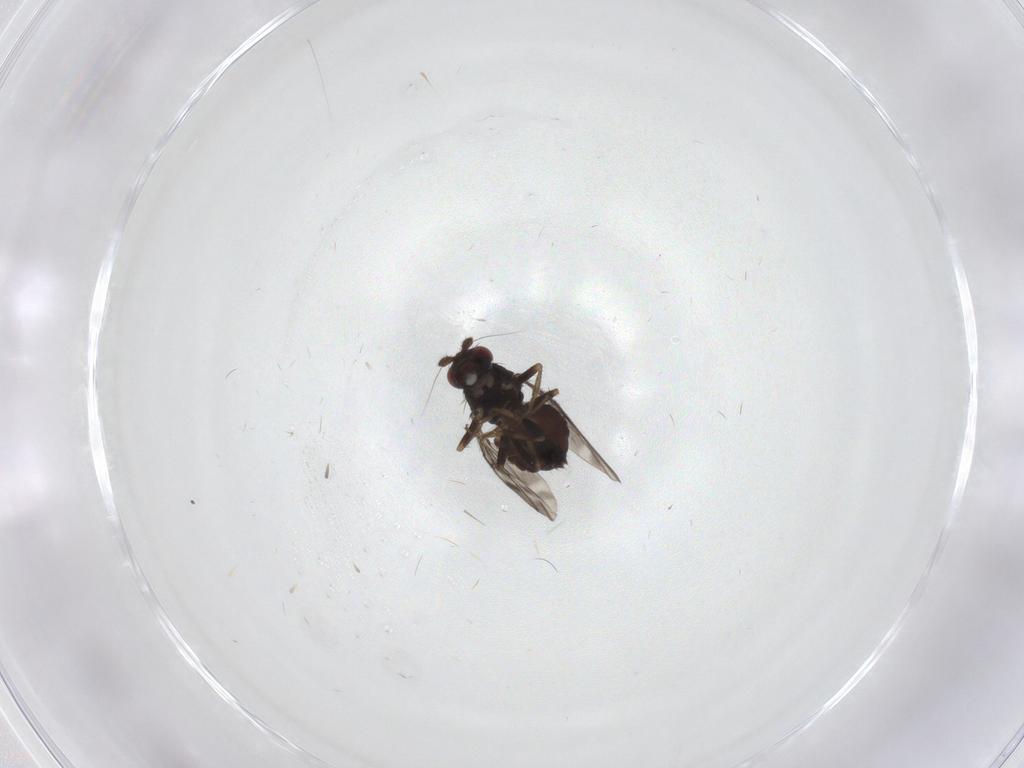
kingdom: Animalia
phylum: Arthropoda
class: Insecta
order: Diptera
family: Sphaeroceridae
